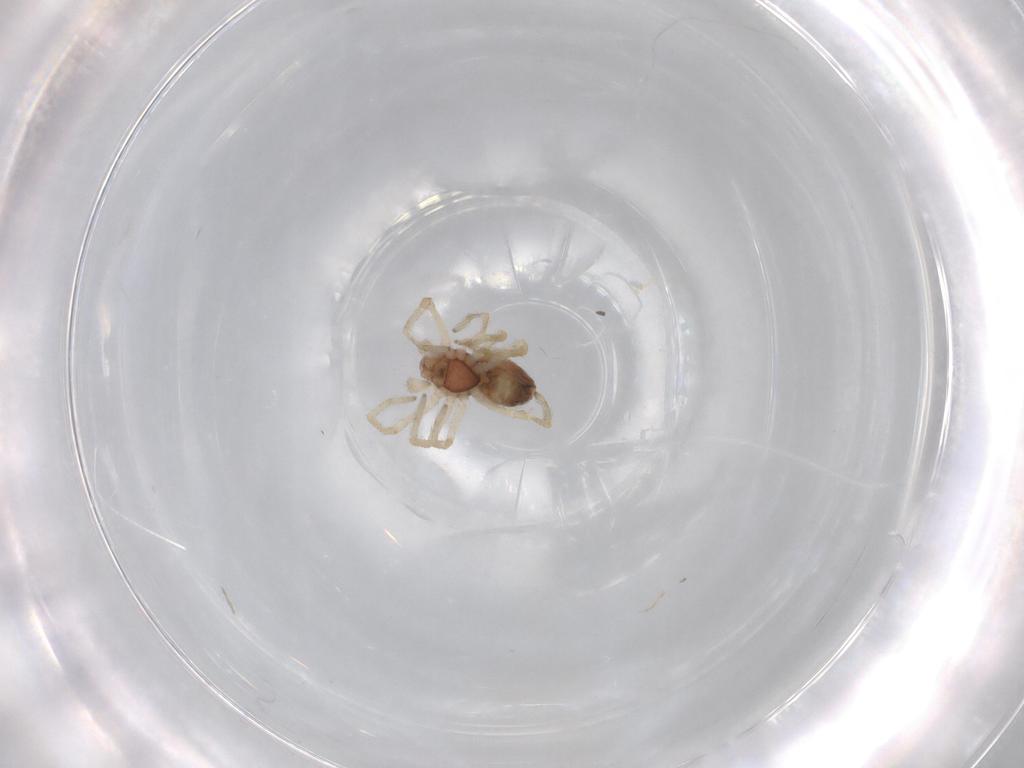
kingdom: Animalia
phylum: Arthropoda
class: Arachnida
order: Araneae
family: Dictynidae
